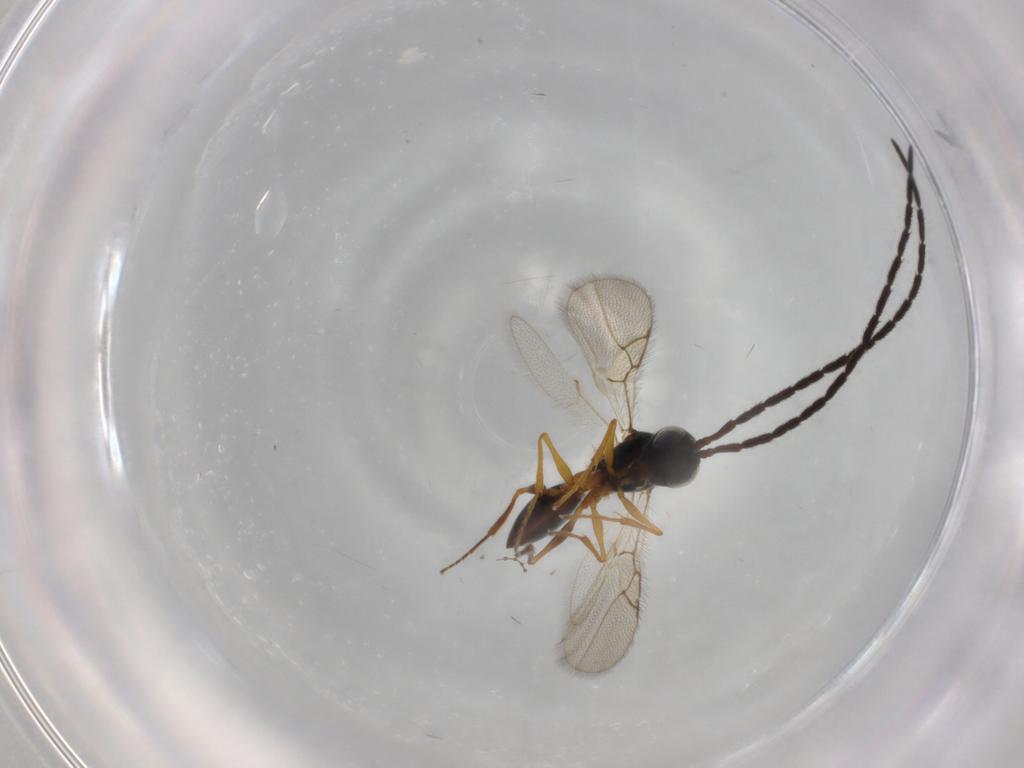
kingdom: Animalia
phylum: Arthropoda
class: Insecta
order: Hymenoptera
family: Figitidae
